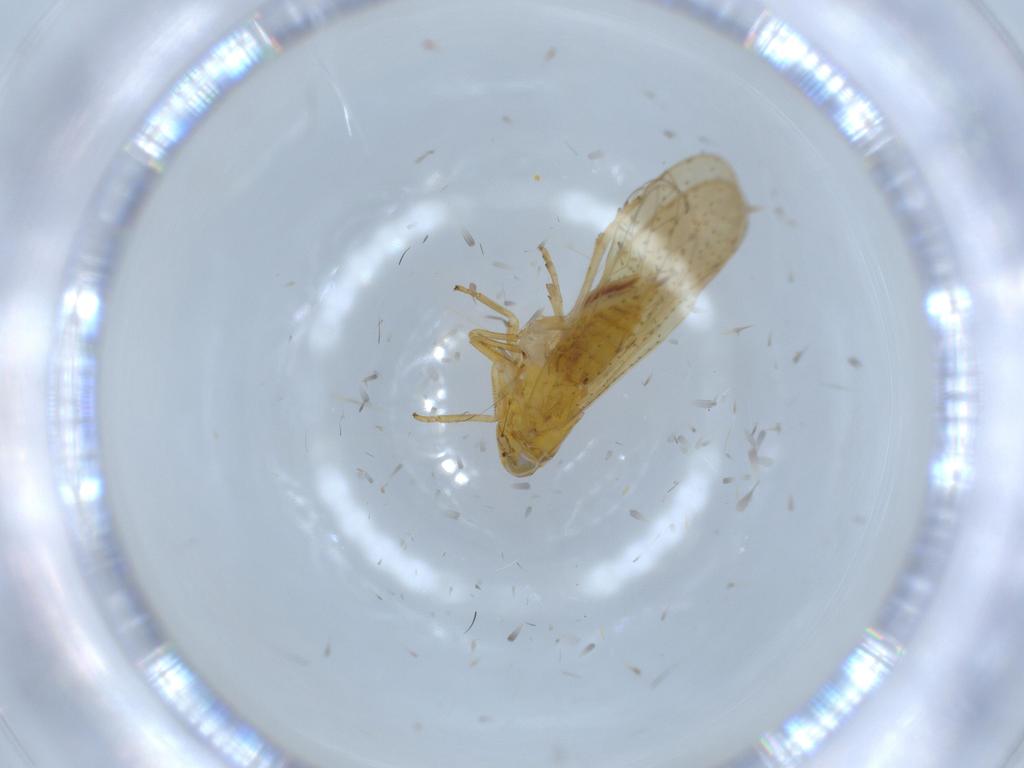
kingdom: Animalia
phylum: Arthropoda
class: Insecta
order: Hemiptera
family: Delphacidae
